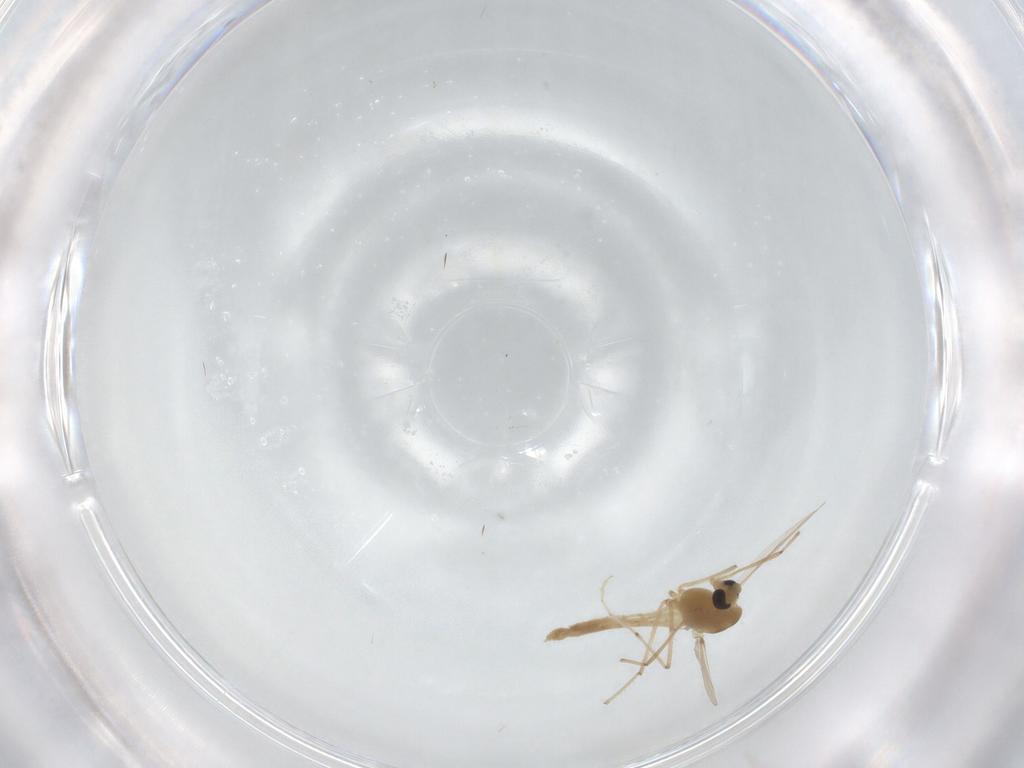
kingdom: Animalia
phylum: Arthropoda
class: Insecta
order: Diptera
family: Chironomidae
